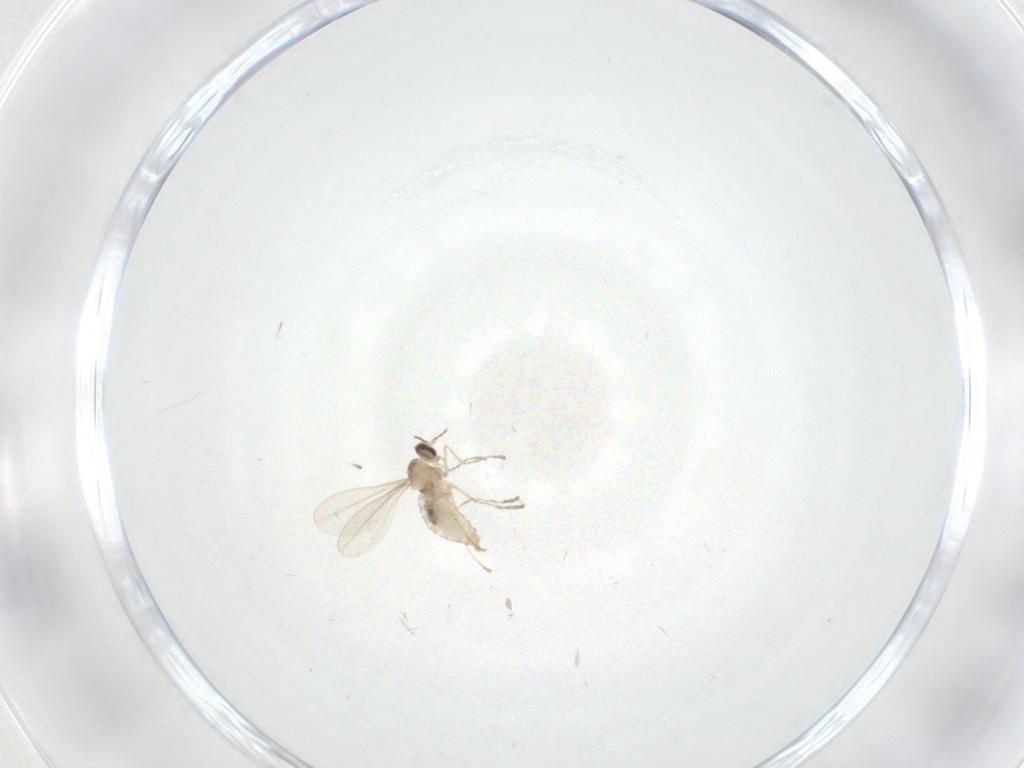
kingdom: Animalia
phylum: Arthropoda
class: Insecta
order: Diptera
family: Cecidomyiidae
